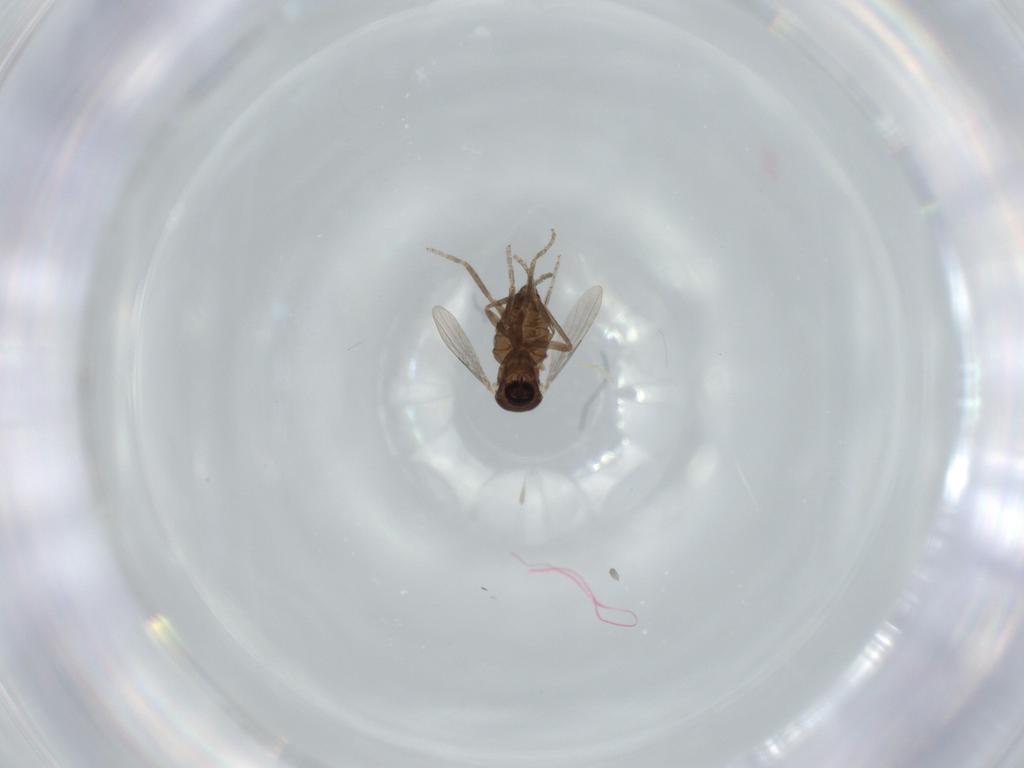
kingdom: Animalia
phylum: Arthropoda
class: Insecta
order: Diptera
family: Ceratopogonidae
